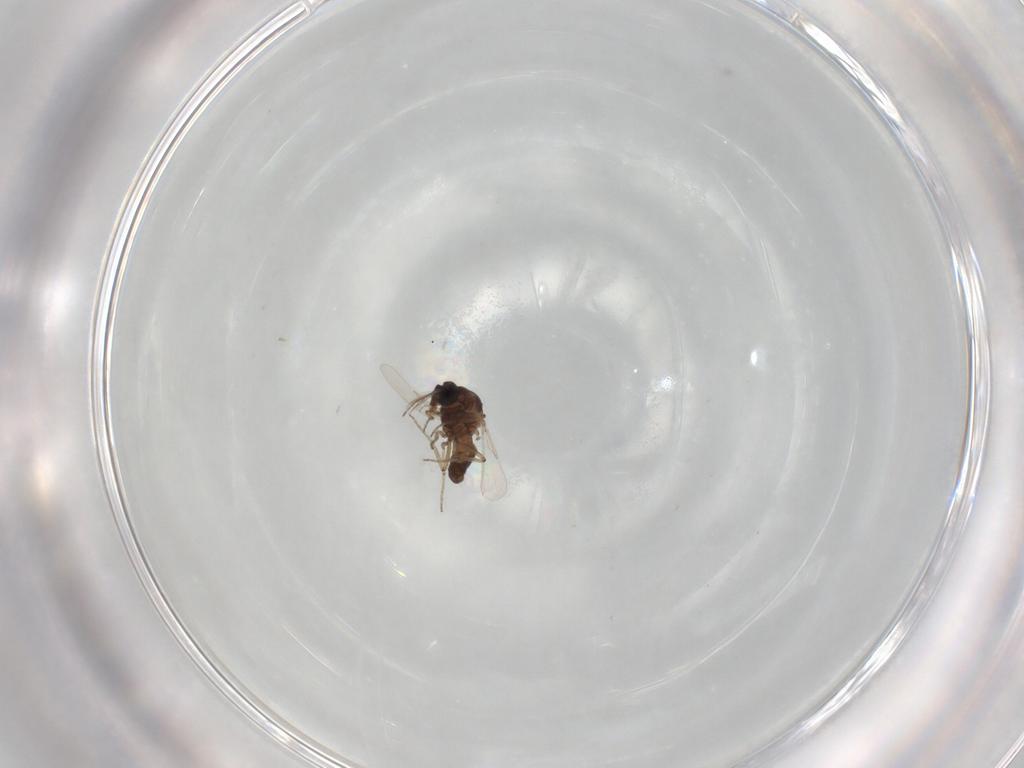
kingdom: Animalia
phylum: Arthropoda
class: Insecta
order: Diptera
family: Ceratopogonidae
